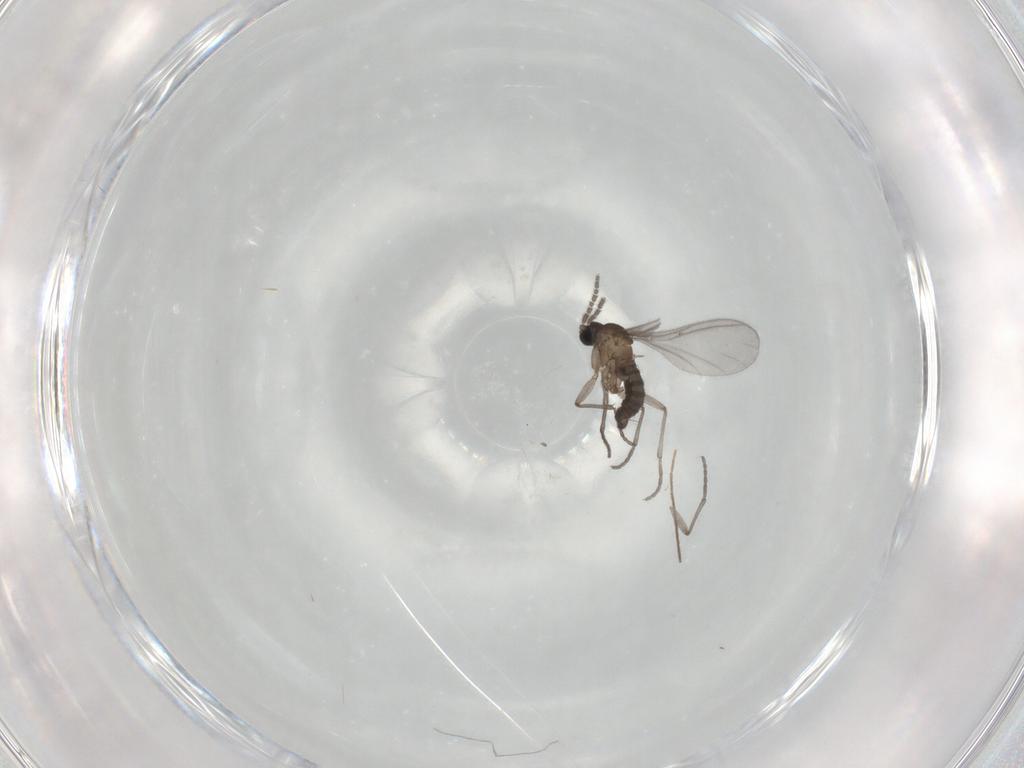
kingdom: Animalia
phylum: Arthropoda
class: Insecta
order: Diptera
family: Sciaridae
